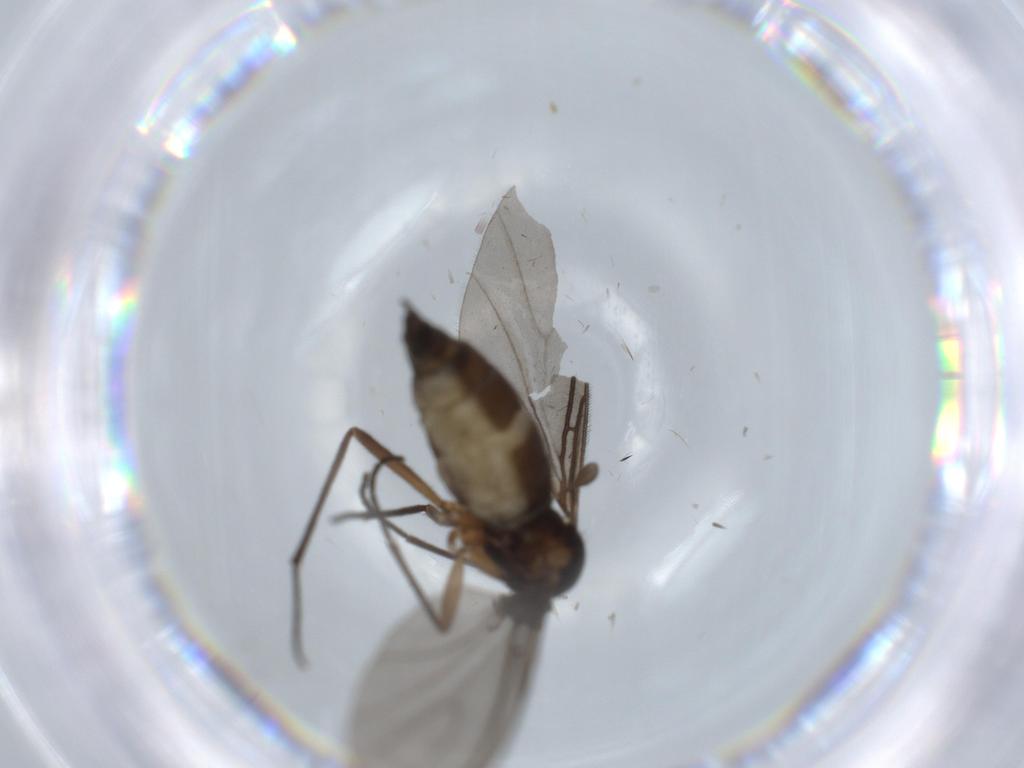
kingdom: Animalia
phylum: Arthropoda
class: Insecta
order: Diptera
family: Sciaridae
